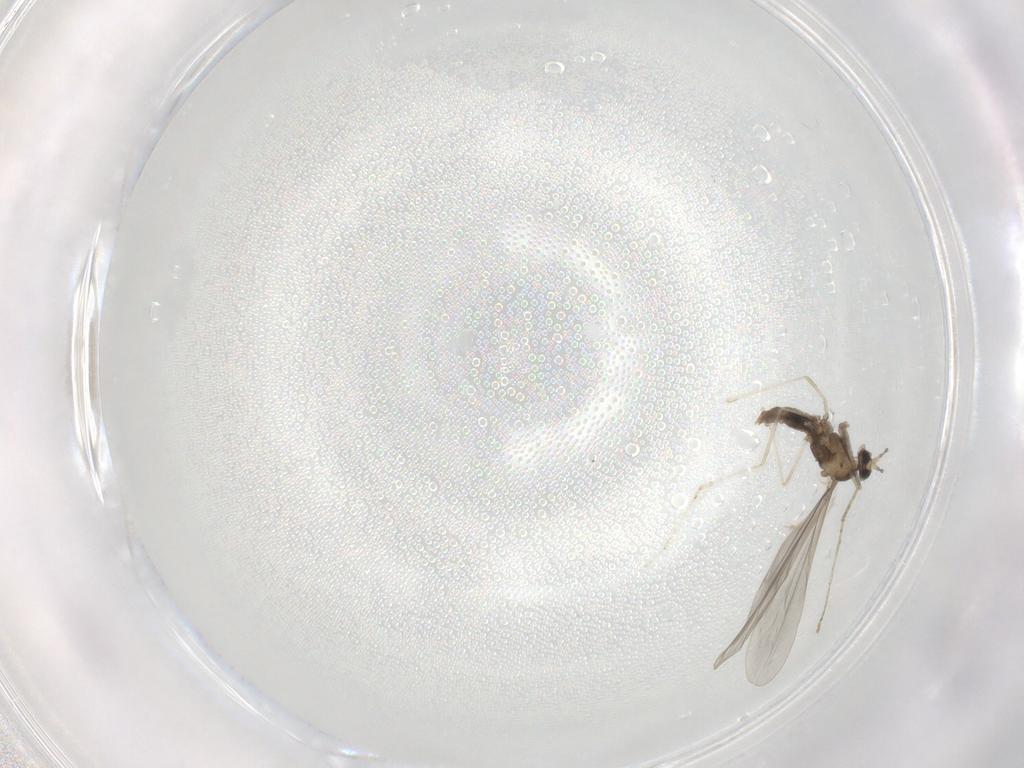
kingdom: Animalia
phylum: Arthropoda
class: Insecta
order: Diptera
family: Cecidomyiidae
